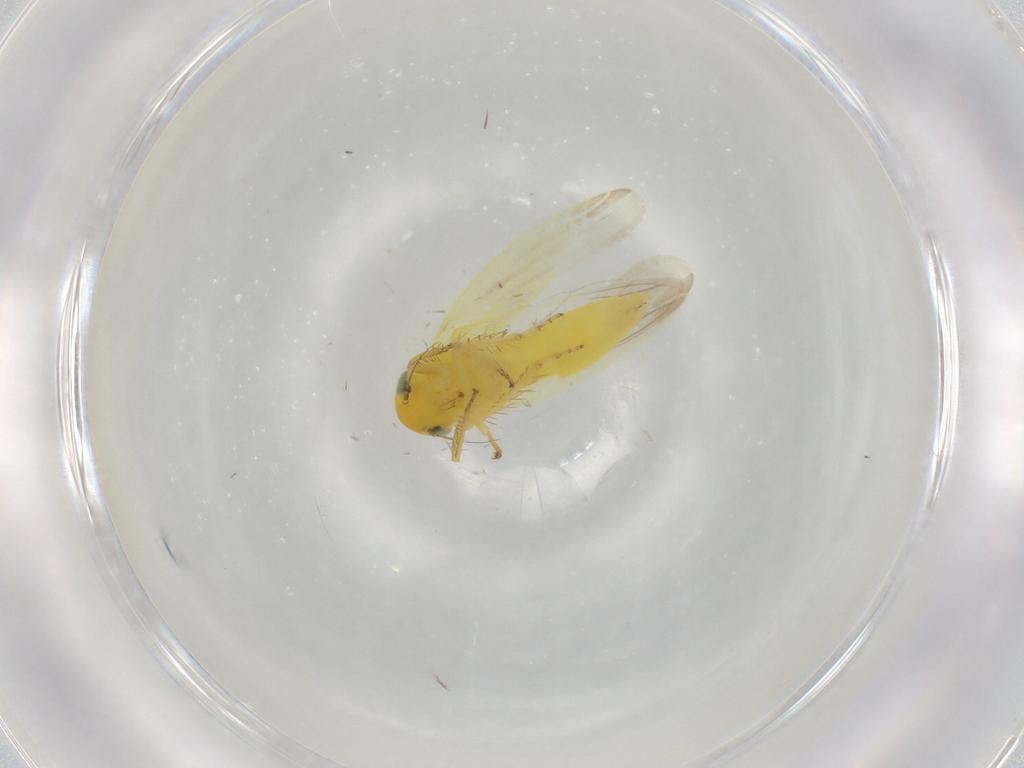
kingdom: Animalia
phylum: Arthropoda
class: Insecta
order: Hemiptera
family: Cicadellidae
